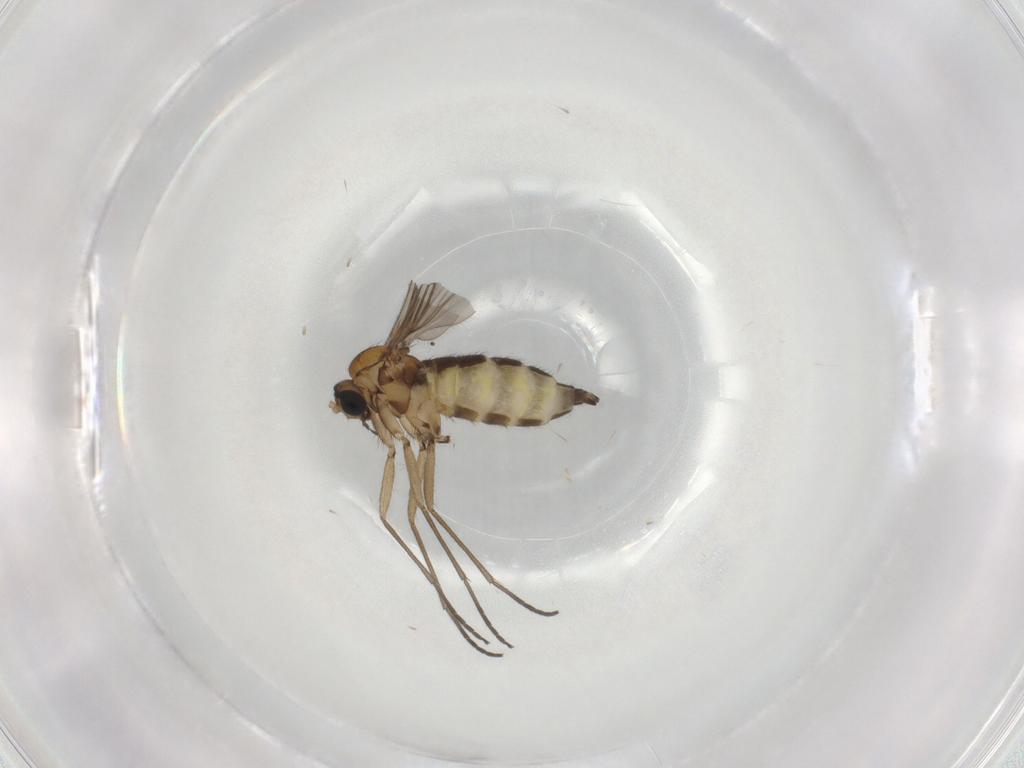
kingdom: Animalia
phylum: Arthropoda
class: Insecta
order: Diptera
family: Sciaridae
